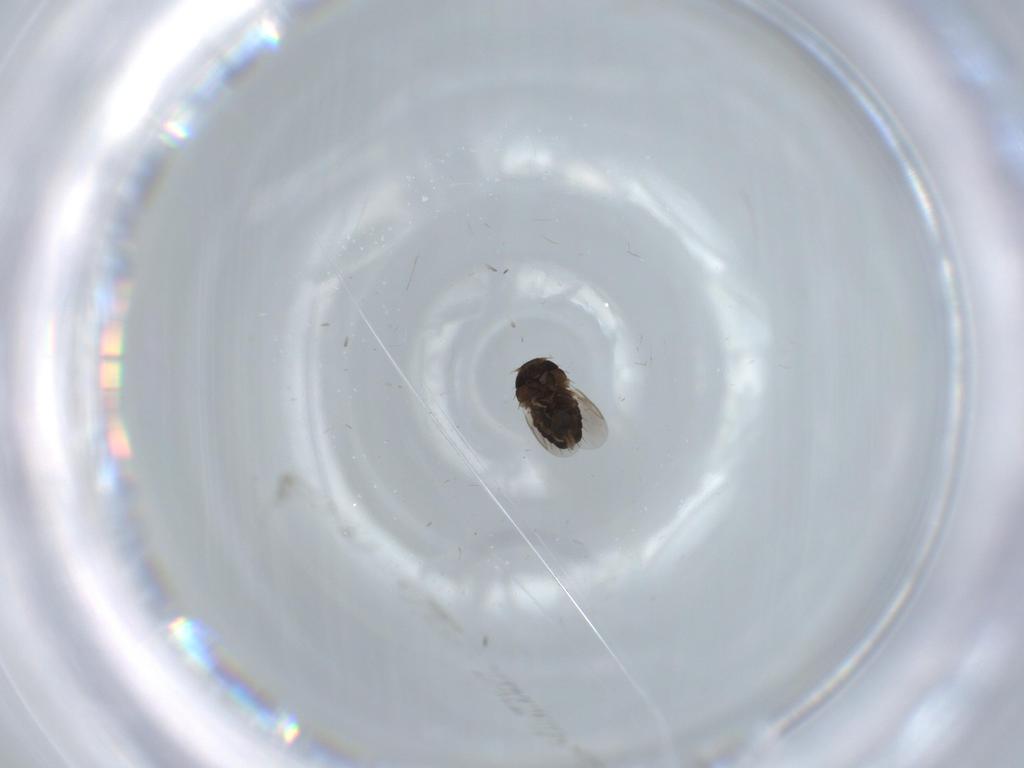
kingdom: Animalia
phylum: Arthropoda
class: Insecta
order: Diptera
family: Phoridae
